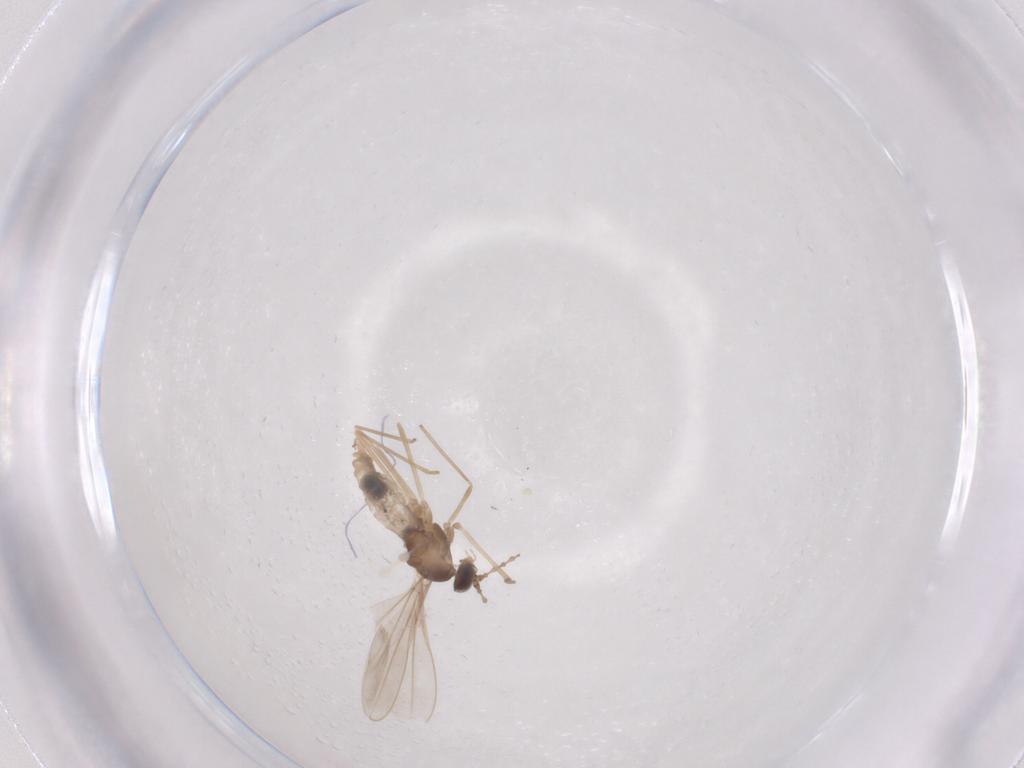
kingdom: Animalia
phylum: Arthropoda
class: Insecta
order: Diptera
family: Cecidomyiidae
